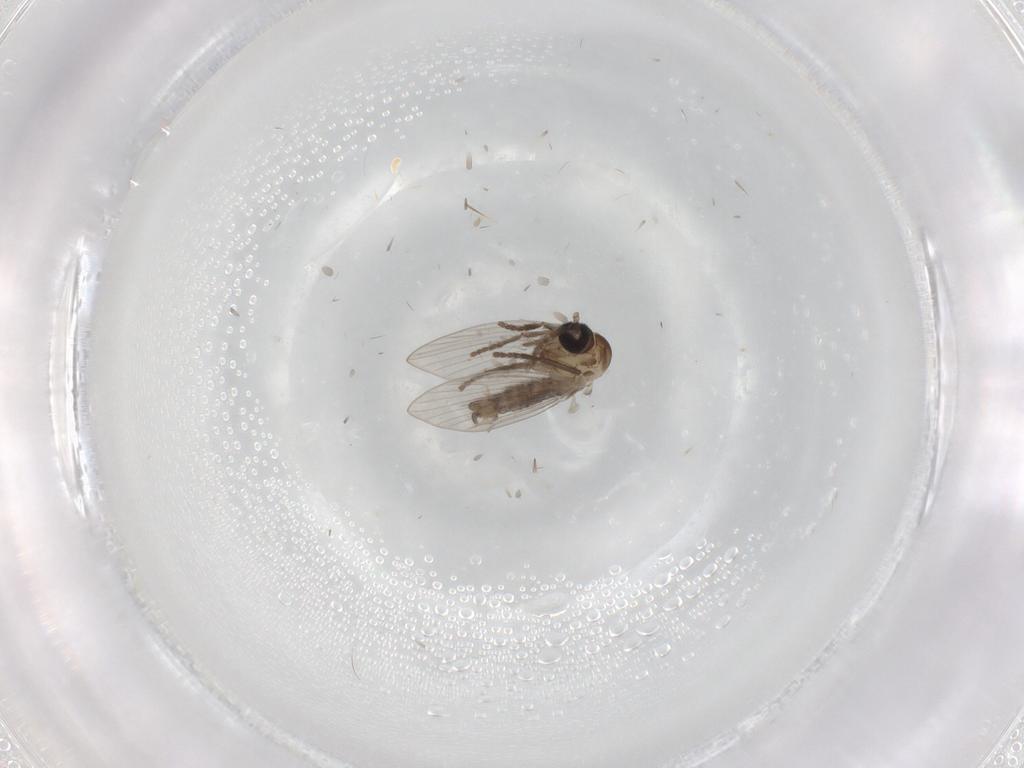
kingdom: Animalia
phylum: Arthropoda
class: Insecta
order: Diptera
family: Drosophilidae
